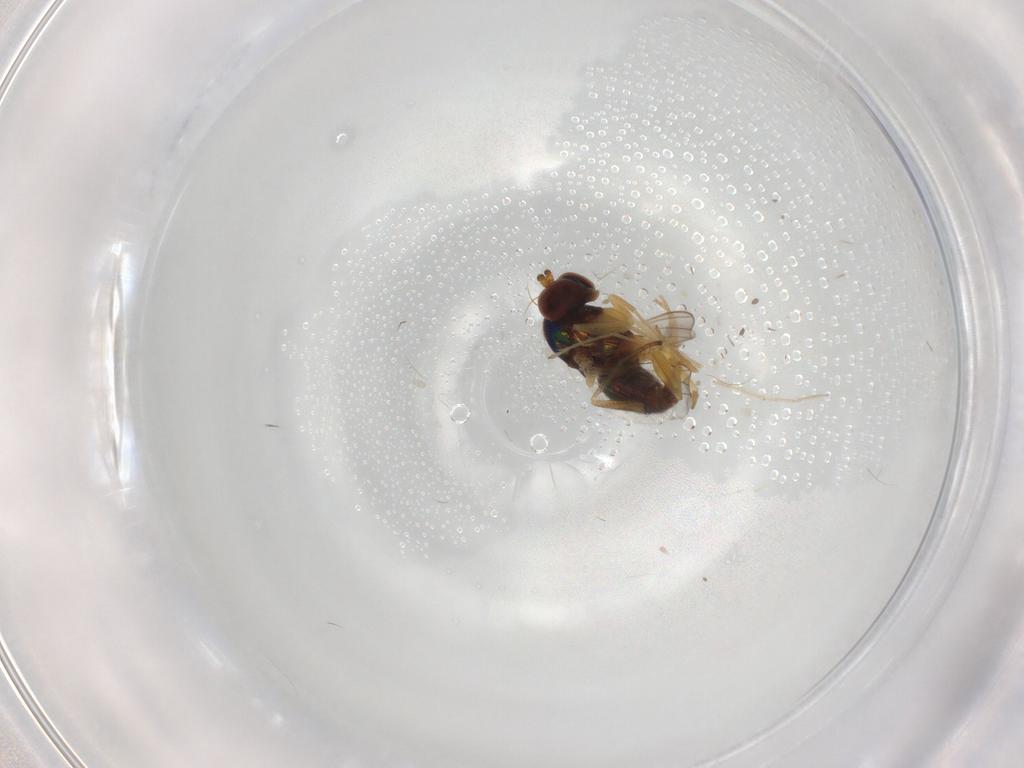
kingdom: Animalia
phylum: Arthropoda
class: Insecta
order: Diptera
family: Dolichopodidae
